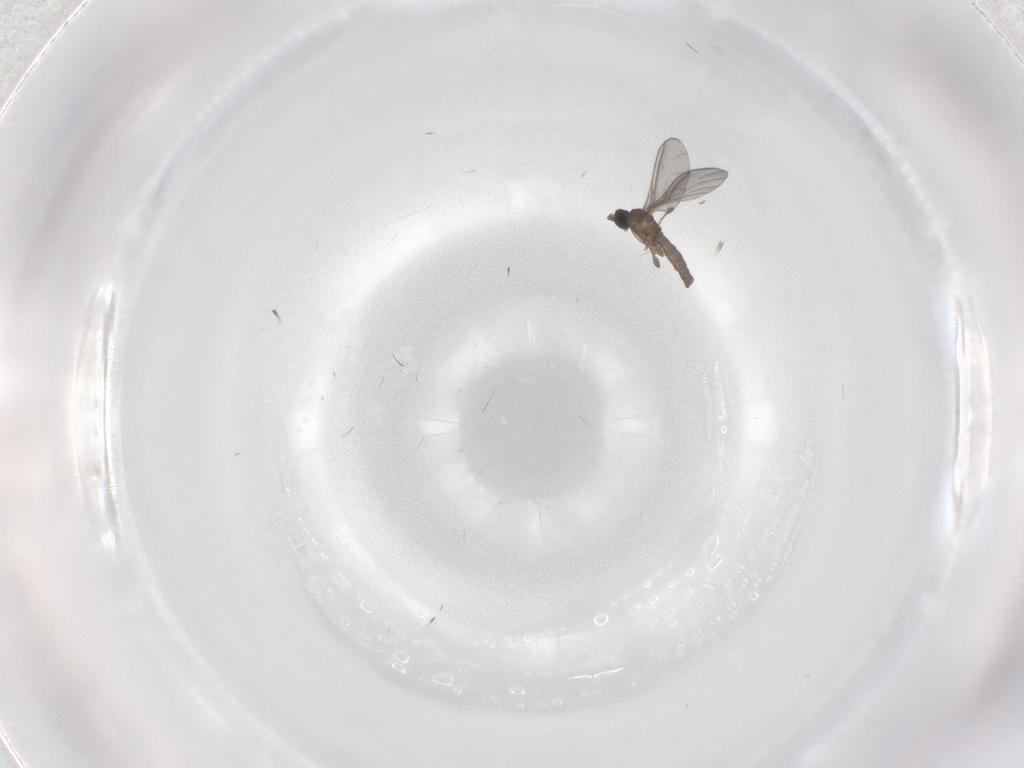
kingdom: Animalia
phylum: Arthropoda
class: Insecta
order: Diptera
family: Sciaridae
